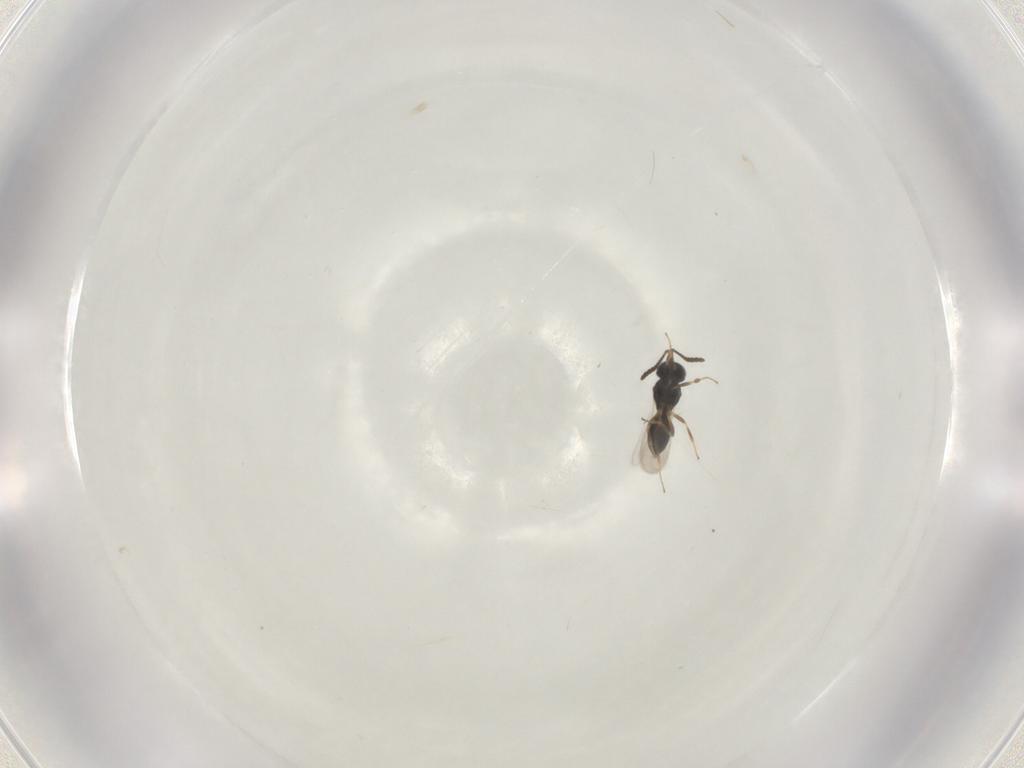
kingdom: Animalia
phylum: Arthropoda
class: Insecta
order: Hymenoptera
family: Scelionidae
